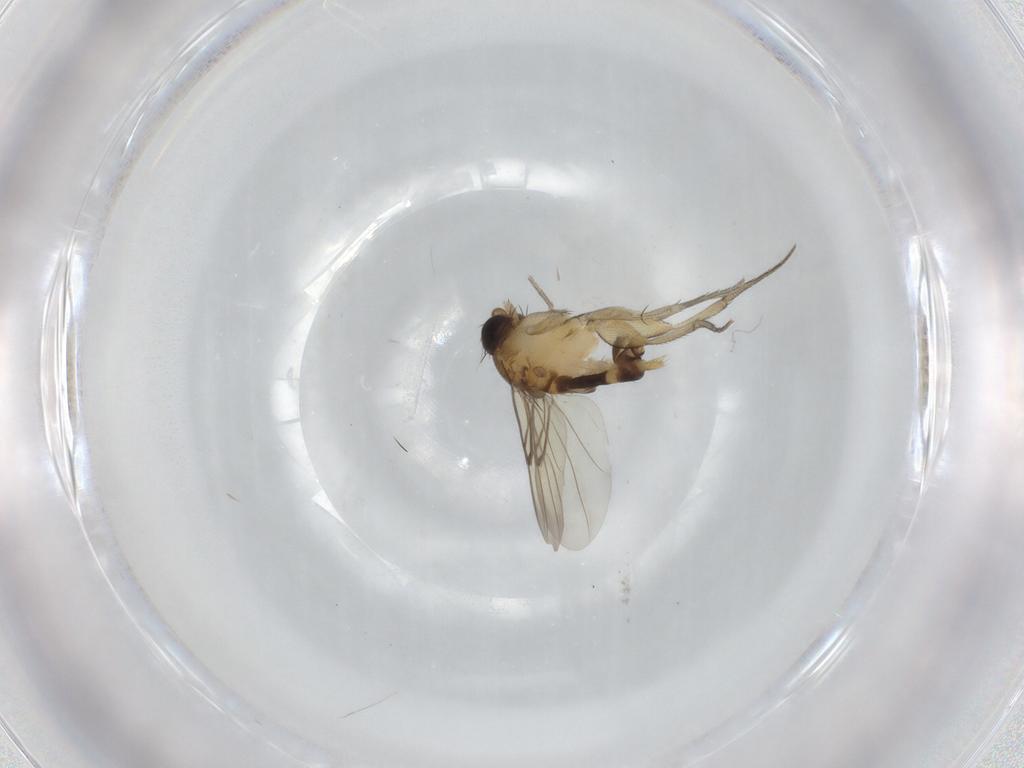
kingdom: Animalia
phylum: Arthropoda
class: Insecta
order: Diptera
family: Phoridae
